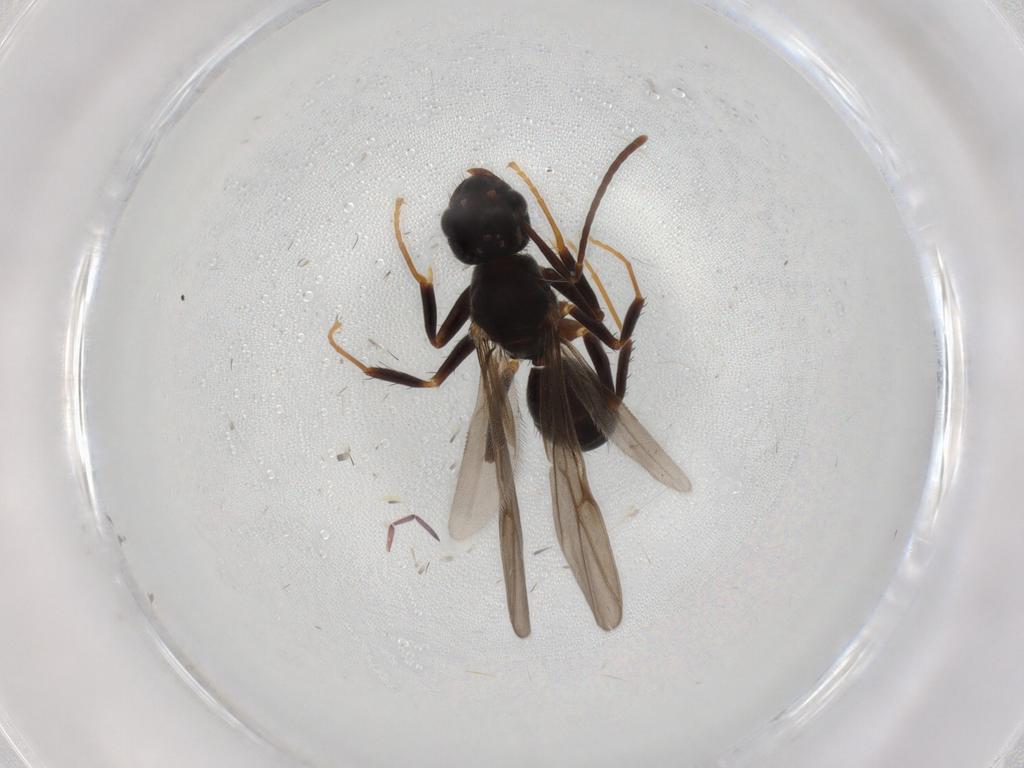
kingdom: Animalia
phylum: Arthropoda
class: Insecta
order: Hymenoptera
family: Formicidae
